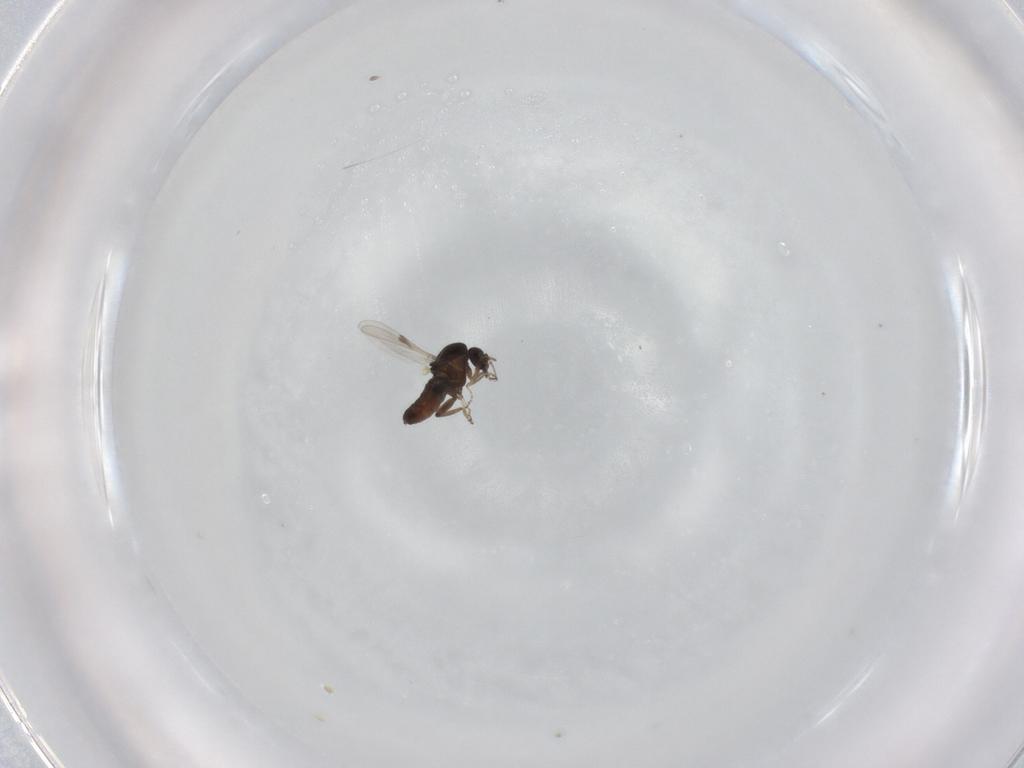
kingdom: Animalia
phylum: Arthropoda
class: Insecta
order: Diptera
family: Ceratopogonidae
